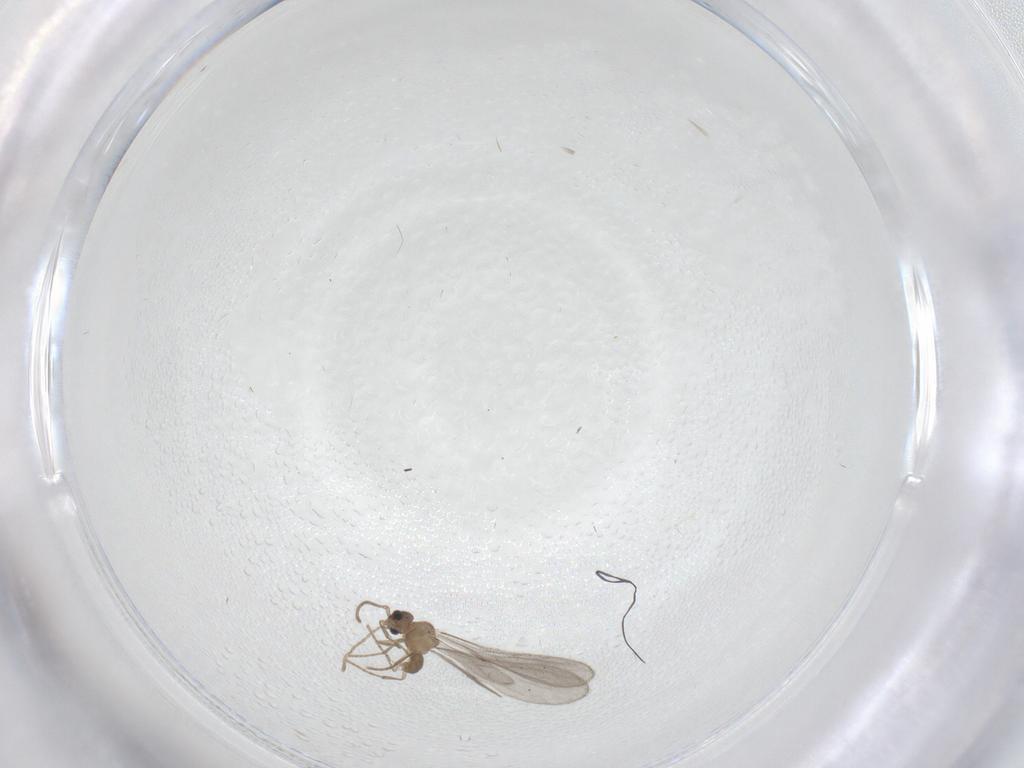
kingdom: Animalia
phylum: Arthropoda
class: Insecta
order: Hymenoptera
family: Formicidae
